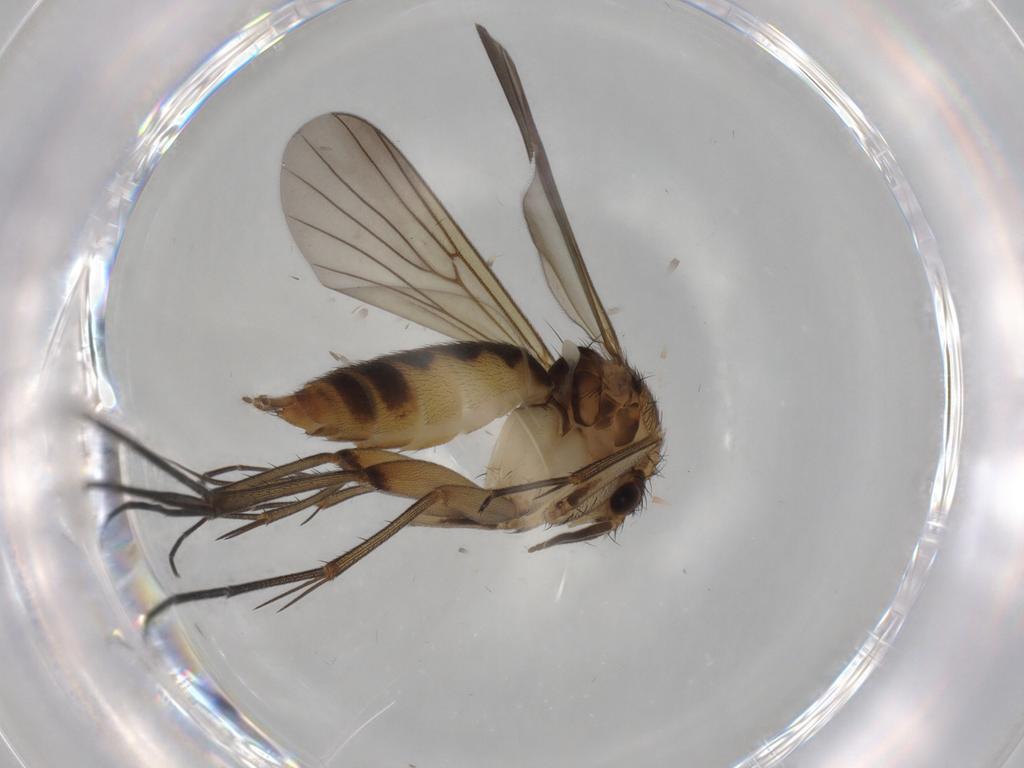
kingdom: Animalia
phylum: Arthropoda
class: Insecta
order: Diptera
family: Mycetophilidae
